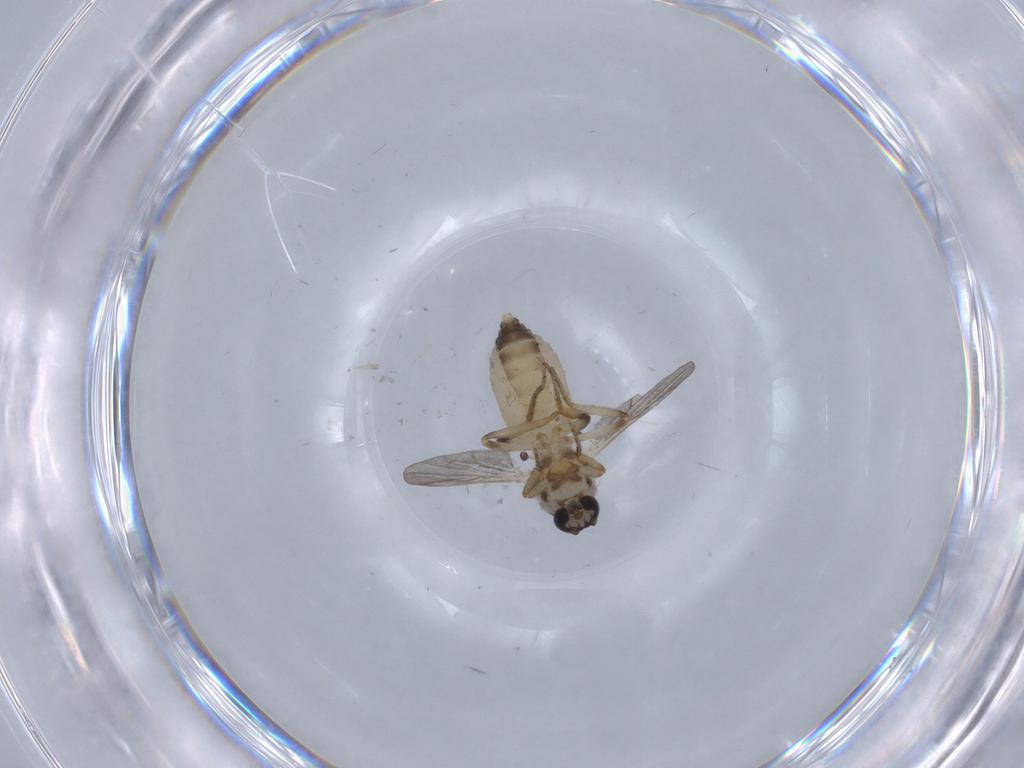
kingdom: Animalia
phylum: Arthropoda
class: Insecta
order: Diptera
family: Ceratopogonidae
